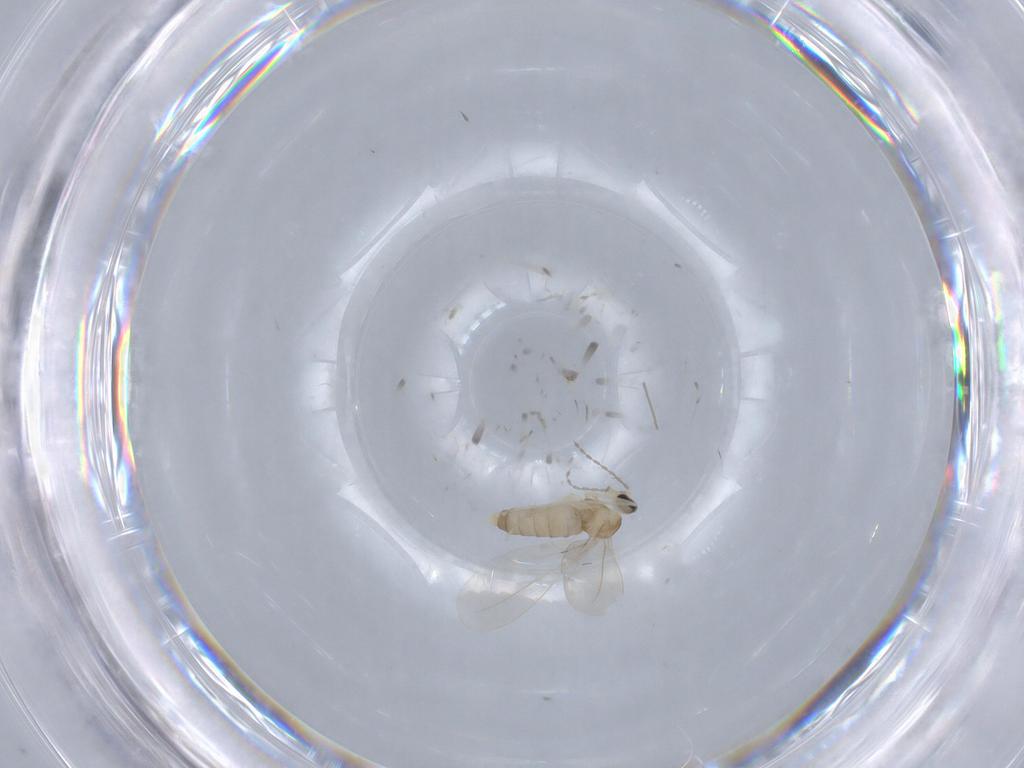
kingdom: Animalia
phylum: Arthropoda
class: Insecta
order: Diptera
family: Cecidomyiidae
